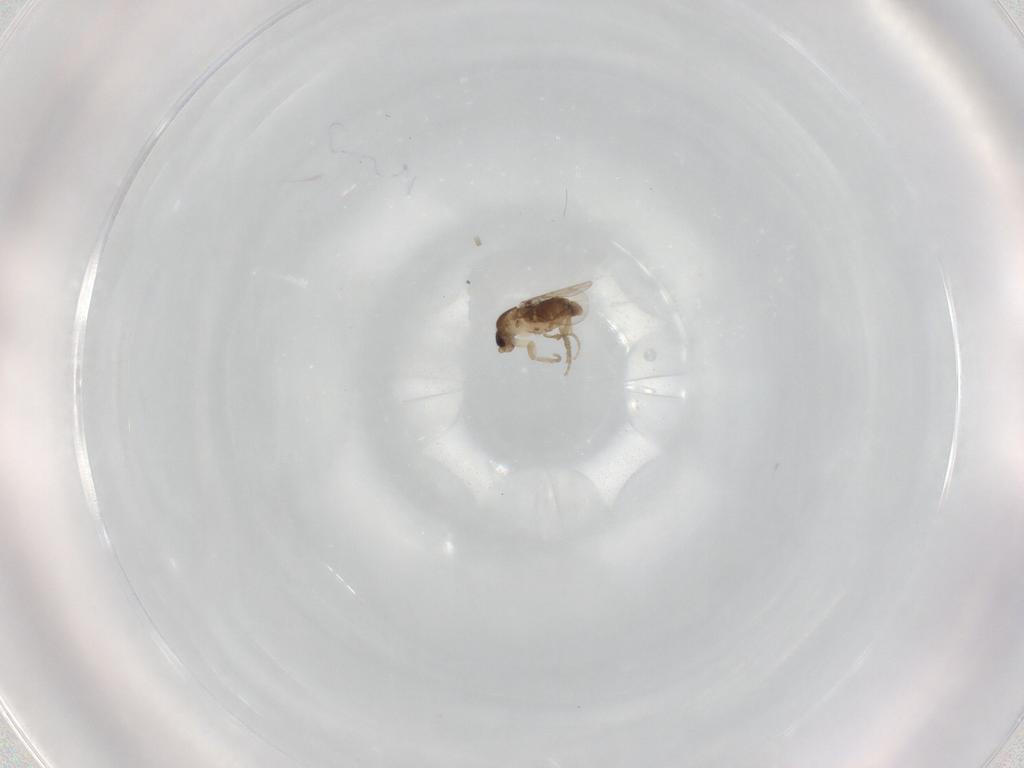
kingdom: Animalia
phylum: Arthropoda
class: Insecta
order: Diptera
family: Phoridae
